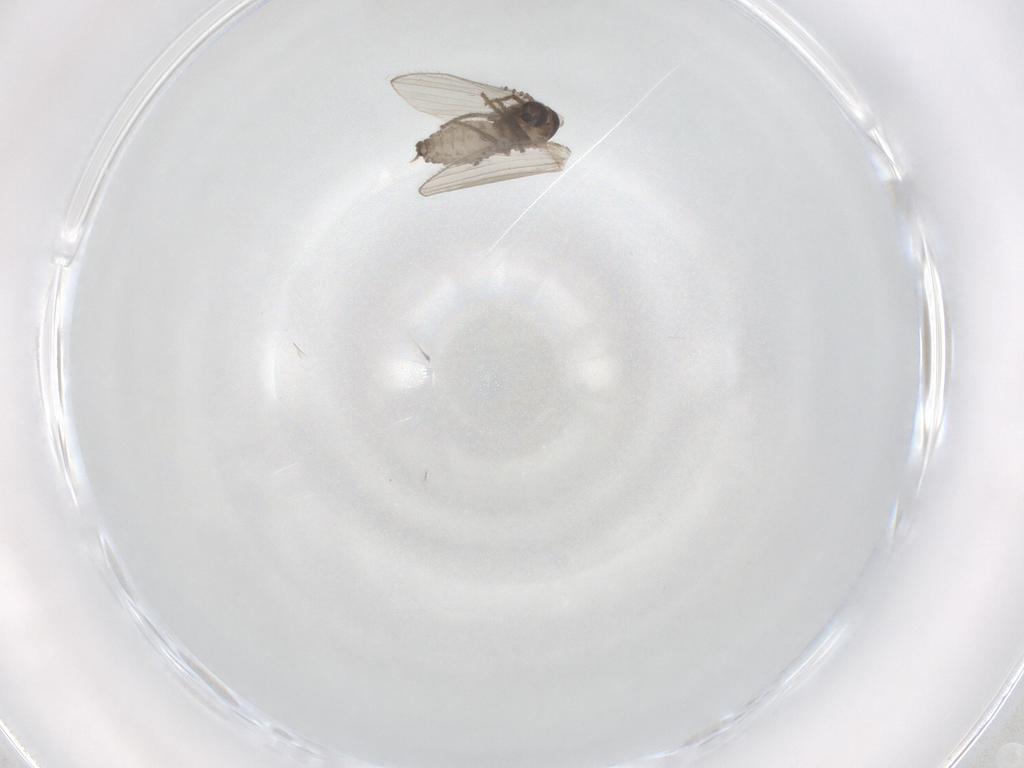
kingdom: Animalia
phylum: Arthropoda
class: Insecta
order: Diptera
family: Psychodidae
